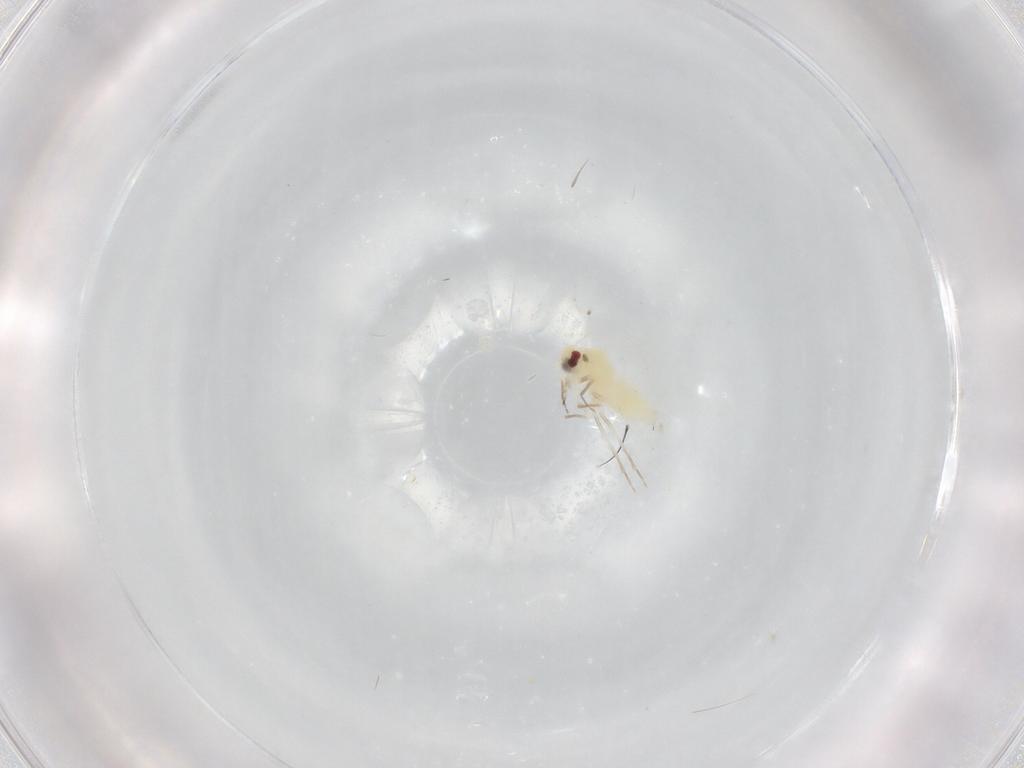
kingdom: Animalia
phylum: Arthropoda
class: Insecta
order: Hemiptera
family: Aleyrodidae
